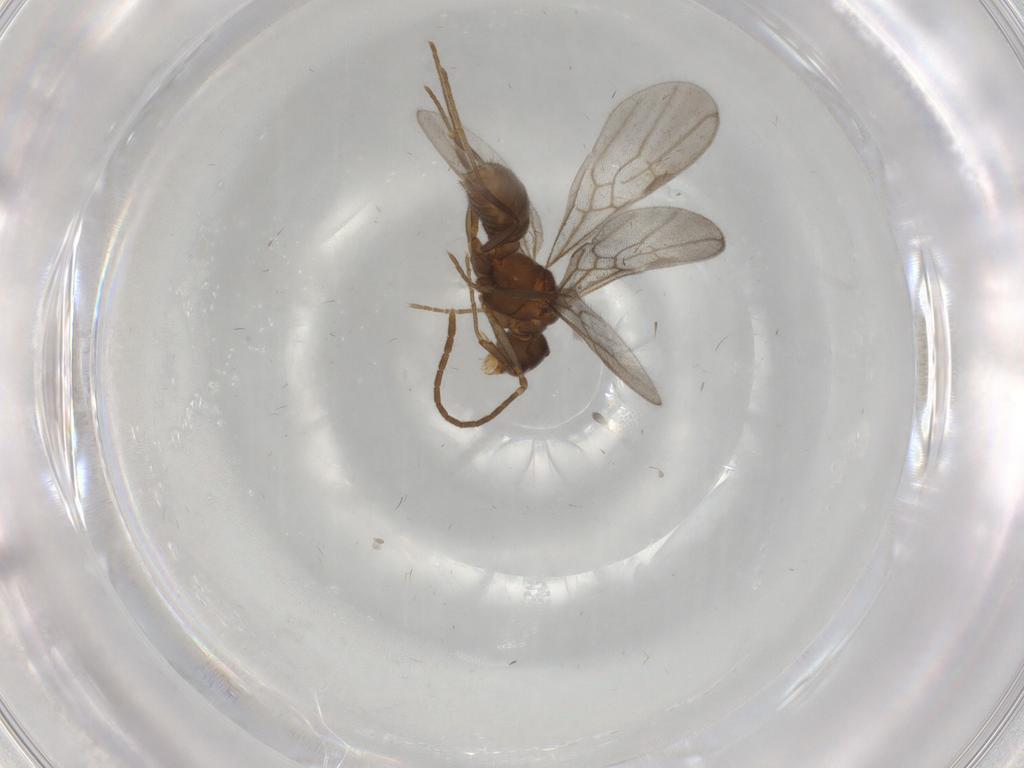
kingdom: Animalia
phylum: Arthropoda
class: Insecta
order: Hymenoptera
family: Formicidae
